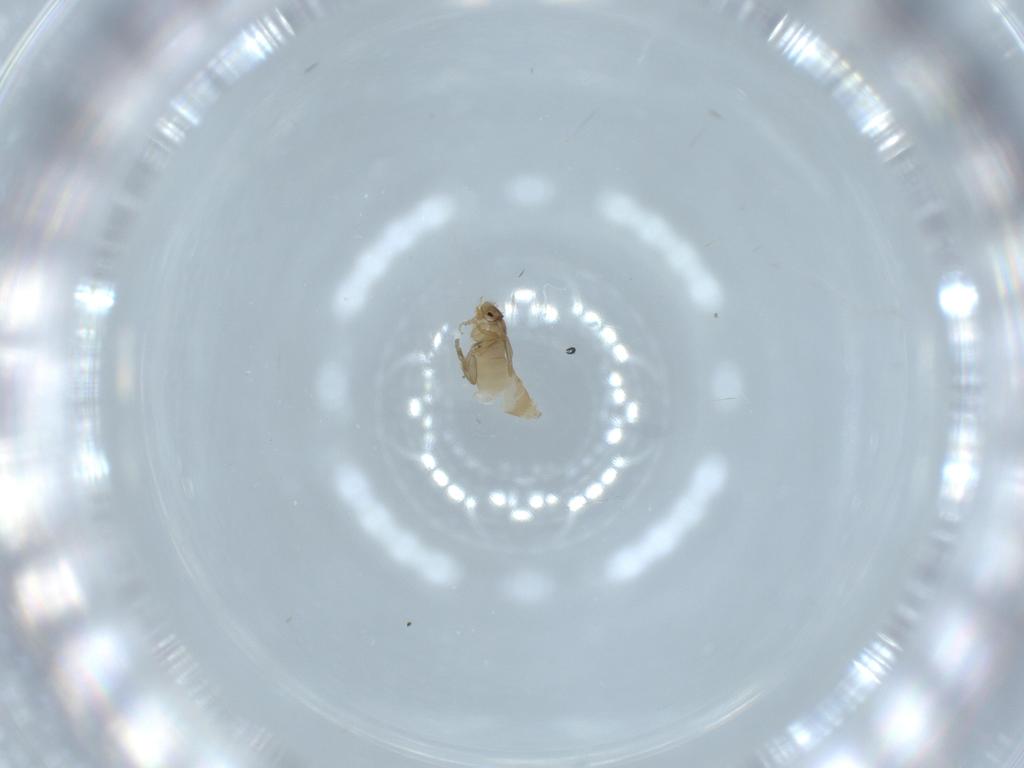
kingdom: Animalia
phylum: Arthropoda
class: Insecta
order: Diptera
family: Phoridae
